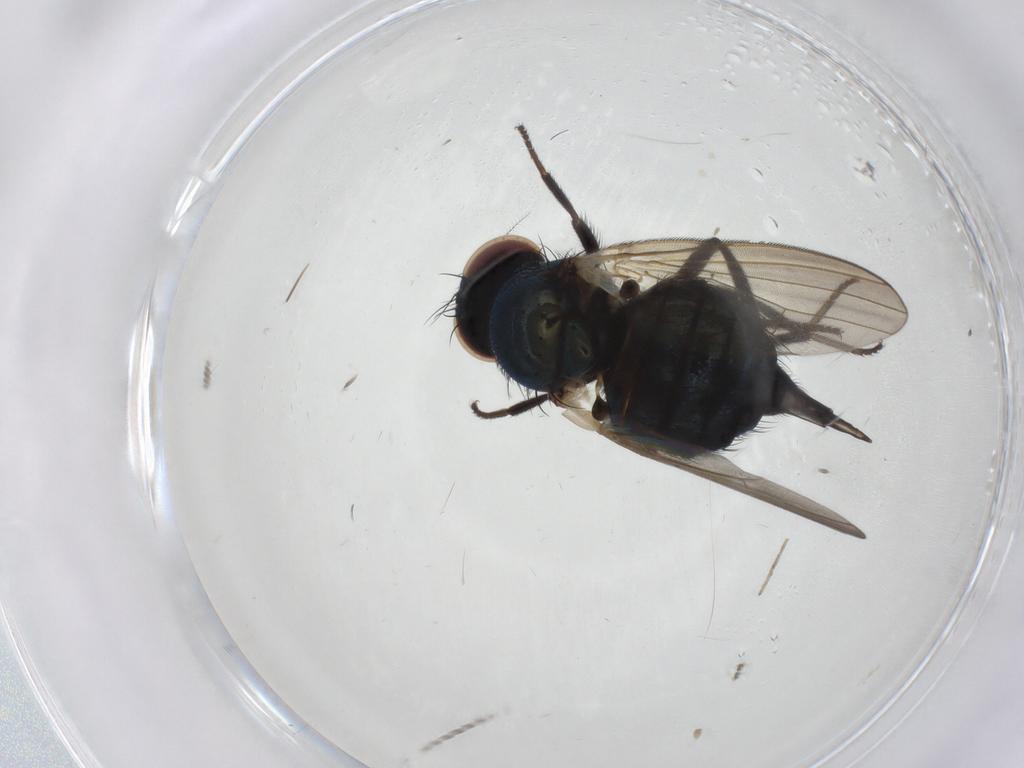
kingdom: Animalia
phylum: Arthropoda
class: Insecta
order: Diptera
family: Lonchaeidae
